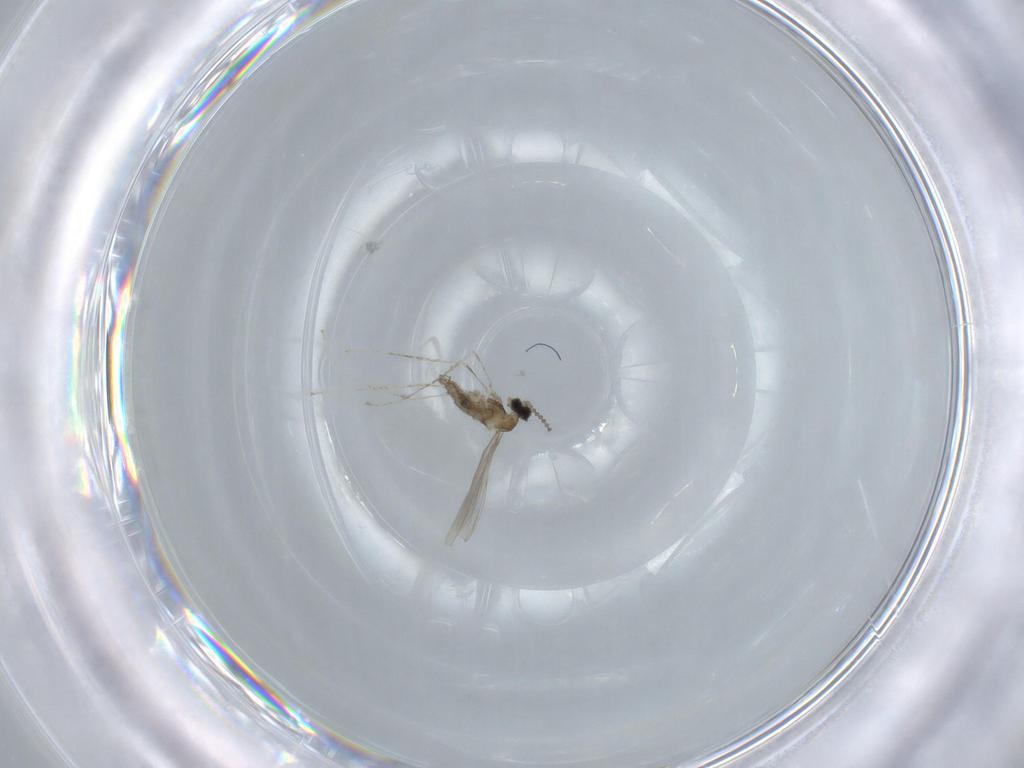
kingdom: Animalia
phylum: Arthropoda
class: Insecta
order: Diptera
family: Cecidomyiidae
